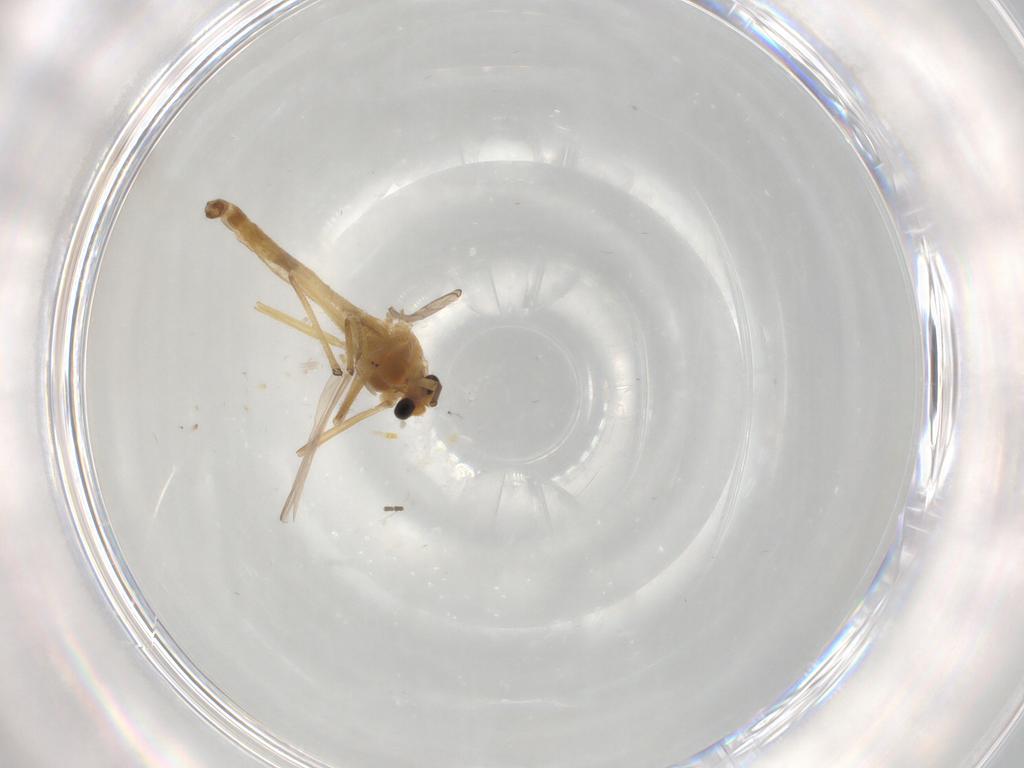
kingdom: Animalia
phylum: Arthropoda
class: Insecta
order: Diptera
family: Chironomidae
